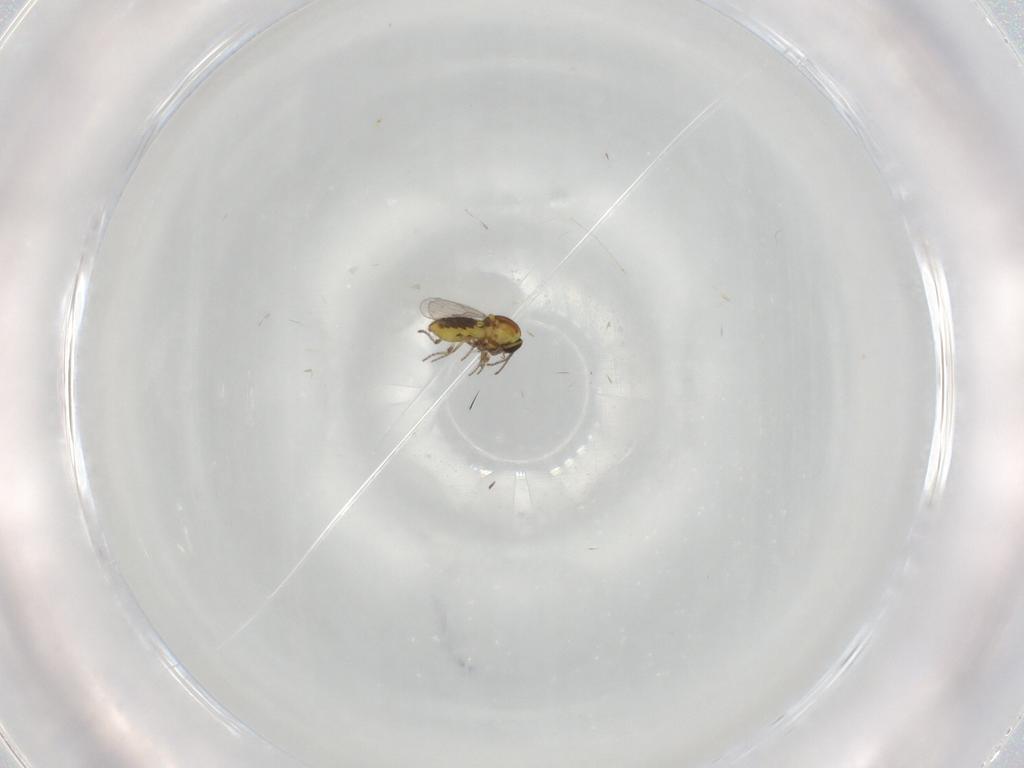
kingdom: Animalia
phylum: Arthropoda
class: Insecta
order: Diptera
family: Ceratopogonidae
